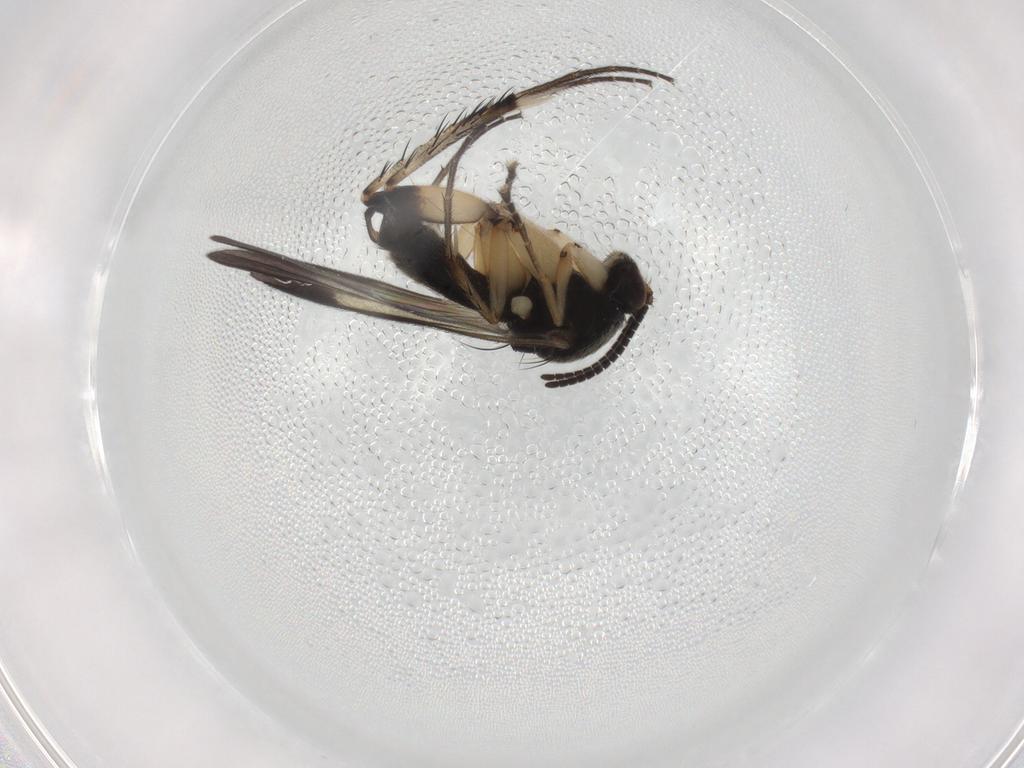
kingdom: Animalia
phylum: Arthropoda
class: Insecta
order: Diptera
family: Mycetophilidae
